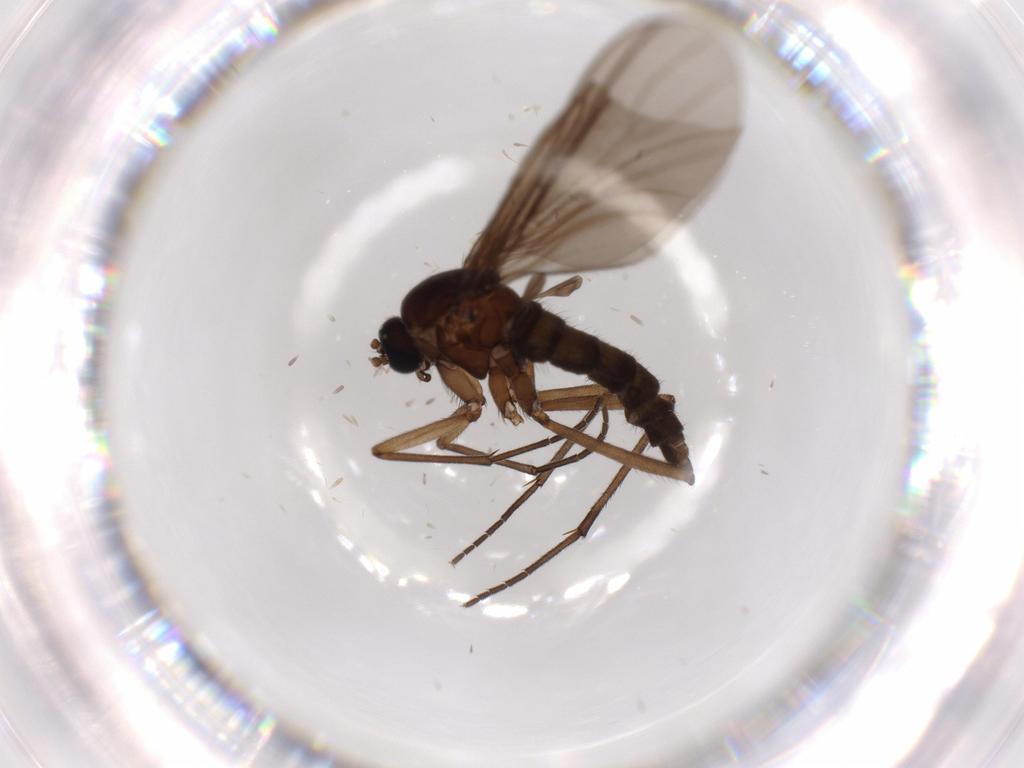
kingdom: Animalia
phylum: Arthropoda
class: Insecta
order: Diptera
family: Sciaridae
